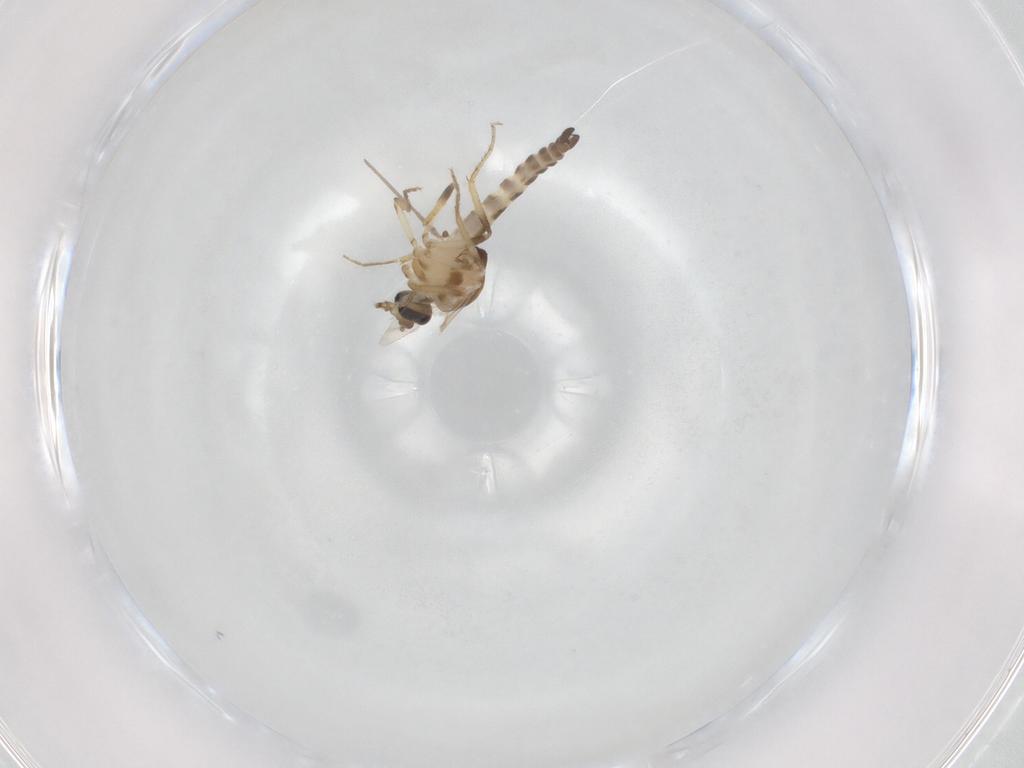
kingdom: Animalia
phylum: Arthropoda
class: Insecta
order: Diptera
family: Ceratopogonidae
